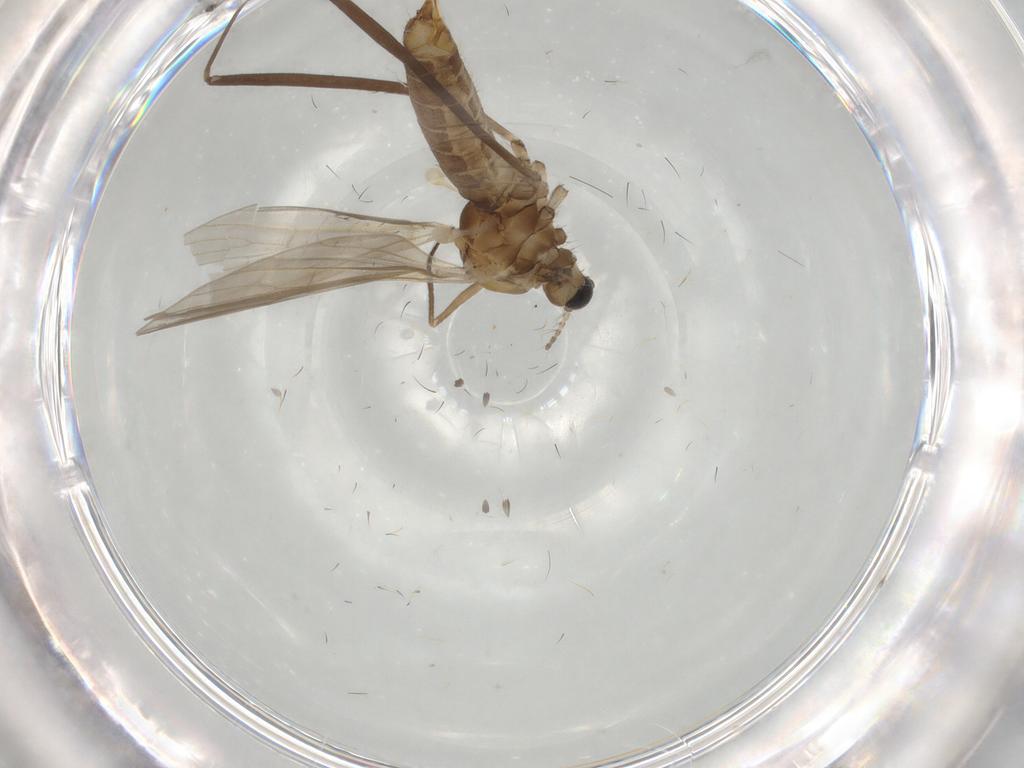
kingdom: Animalia
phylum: Arthropoda
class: Insecta
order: Diptera
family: Limoniidae
